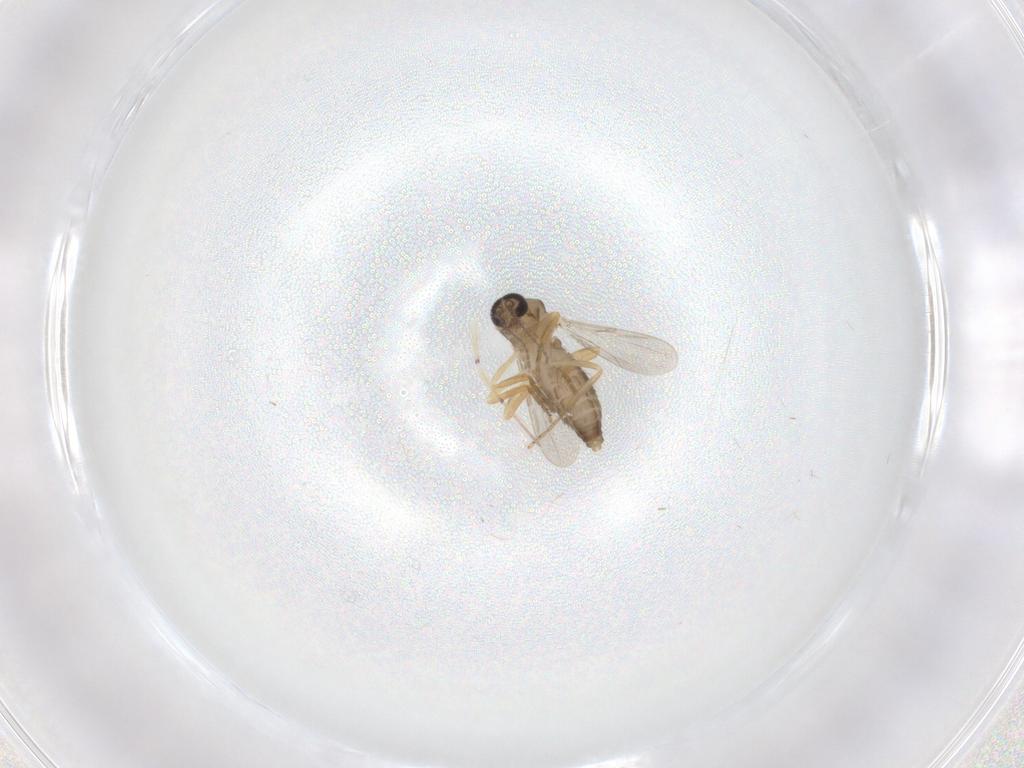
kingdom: Animalia
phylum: Arthropoda
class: Insecta
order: Diptera
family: Ceratopogonidae
